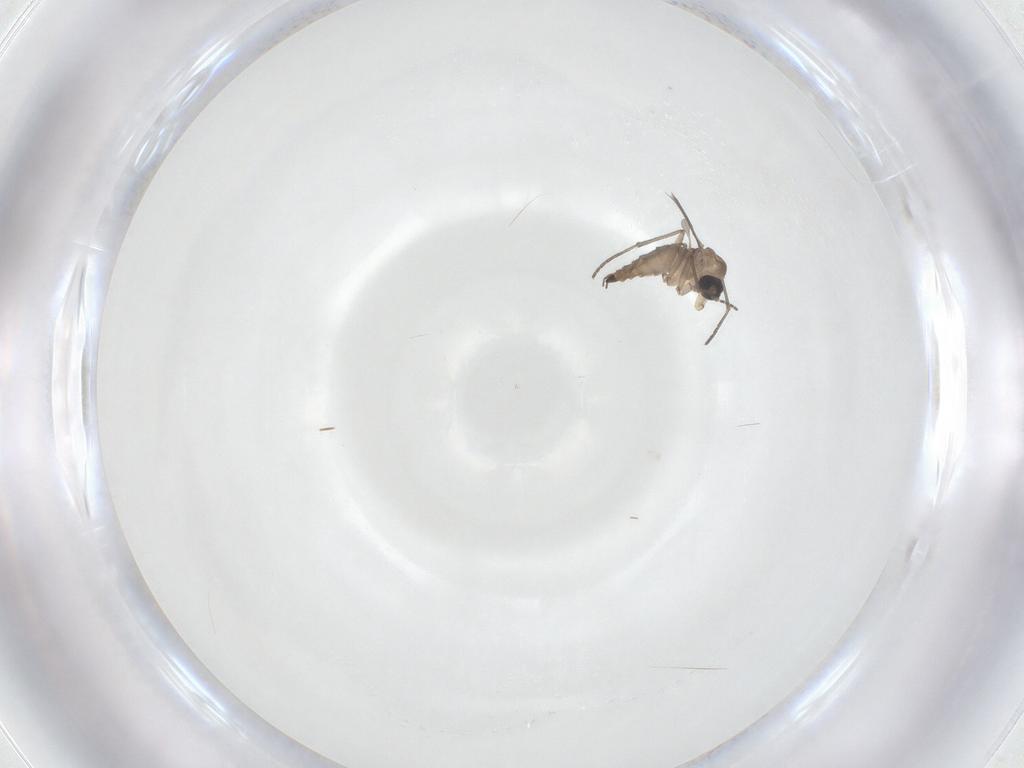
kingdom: Animalia
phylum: Arthropoda
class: Insecta
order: Diptera
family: Sciaridae
